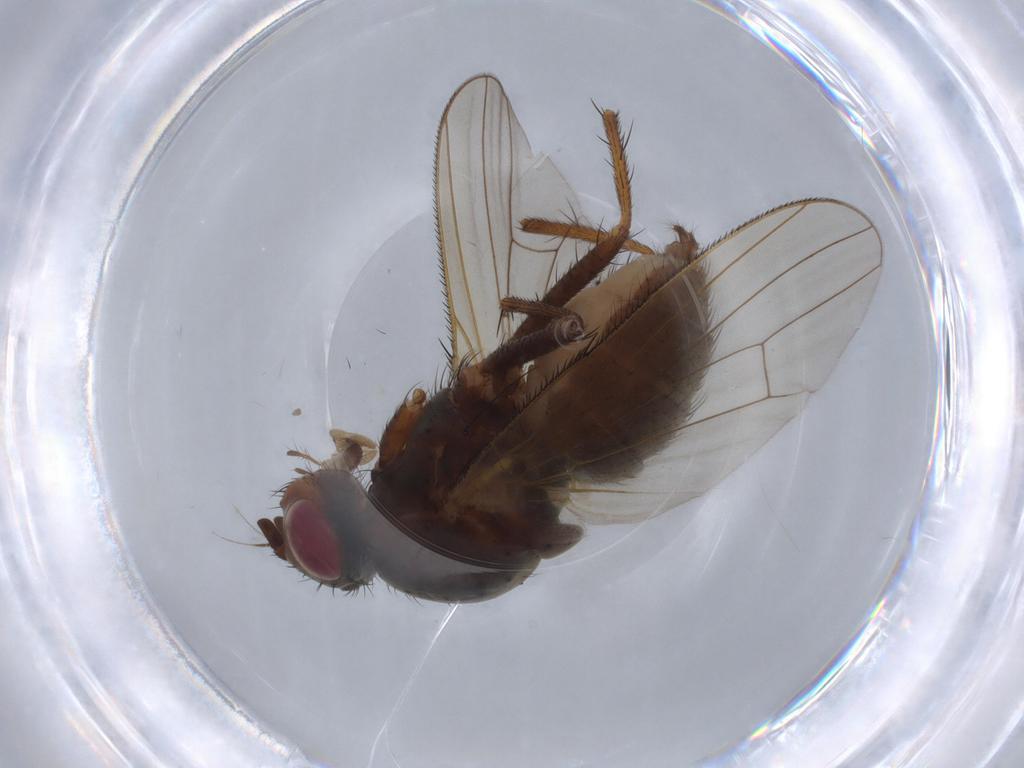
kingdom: Animalia
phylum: Arthropoda
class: Insecta
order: Diptera
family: Anthomyiidae
